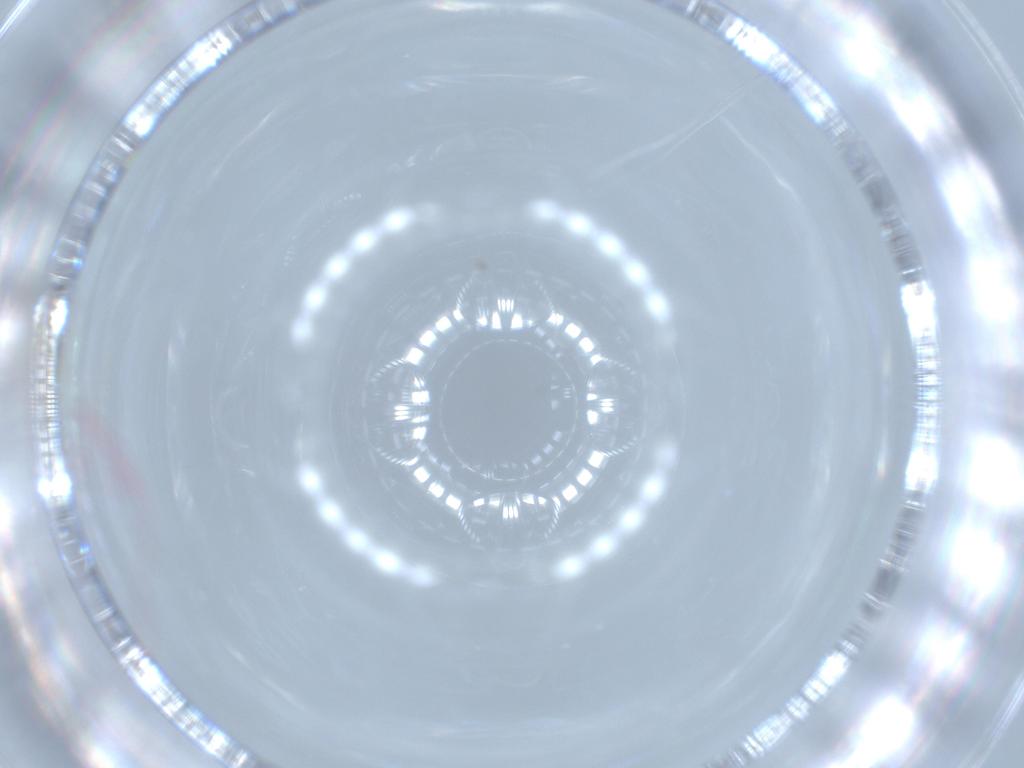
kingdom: Animalia
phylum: Arthropoda
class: Insecta
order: Diptera
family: Cecidomyiidae
